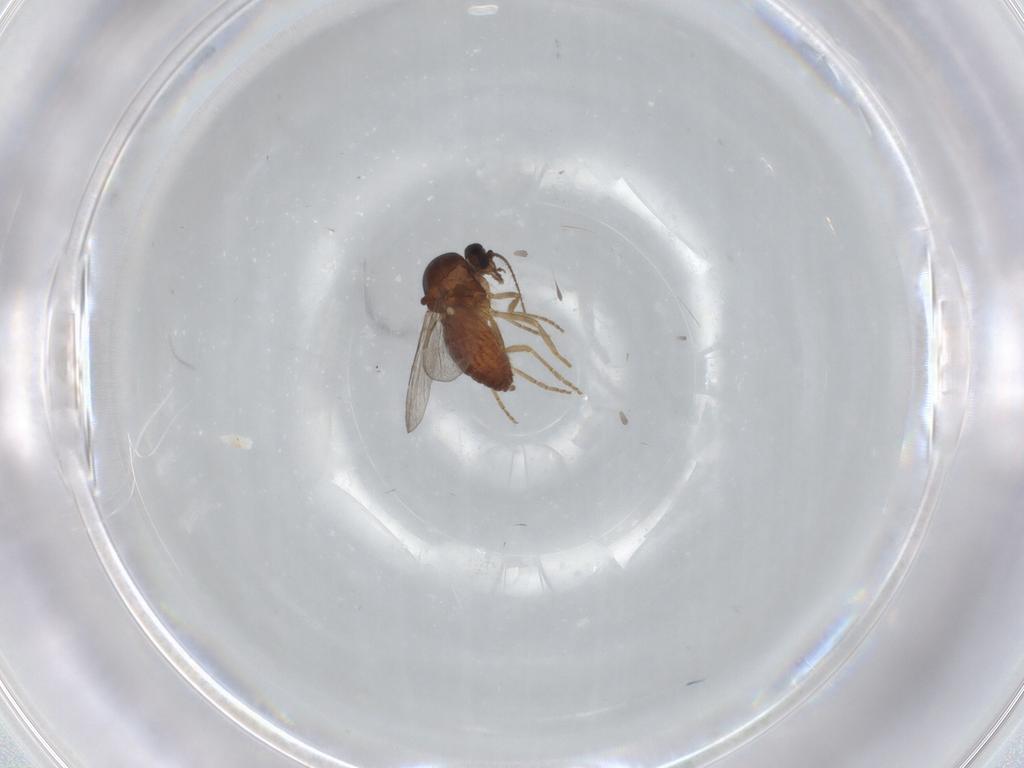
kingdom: Animalia
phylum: Arthropoda
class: Insecta
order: Diptera
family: Ceratopogonidae
